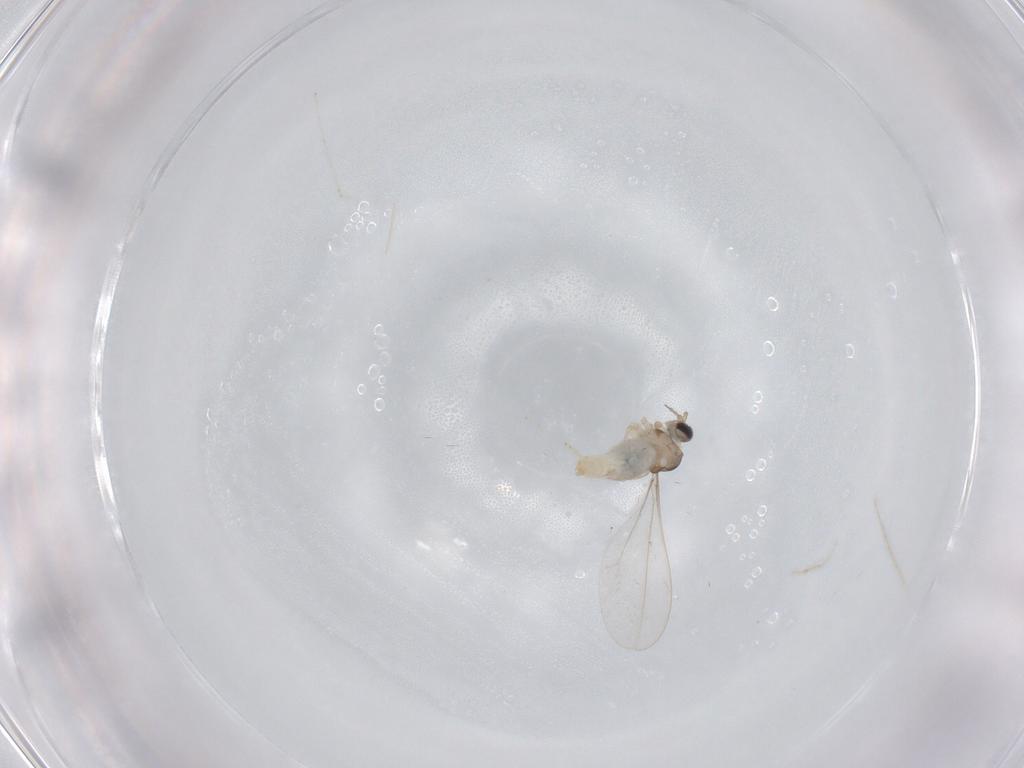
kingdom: Animalia
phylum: Arthropoda
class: Insecta
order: Diptera
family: Cecidomyiidae
